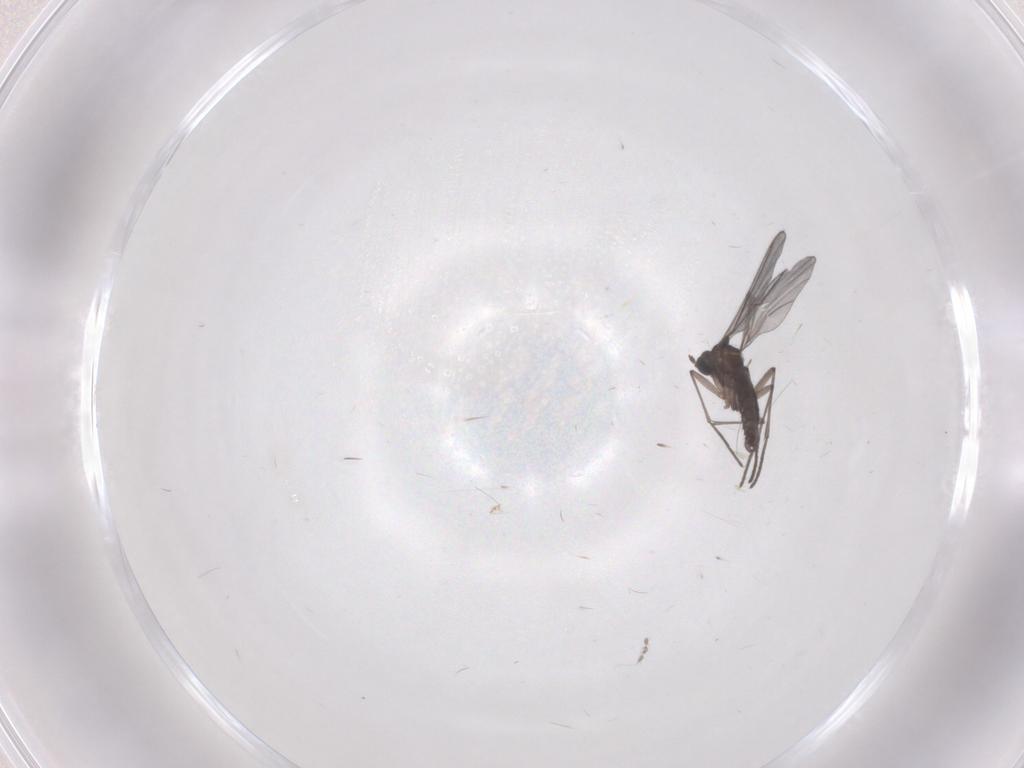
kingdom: Animalia
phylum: Arthropoda
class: Insecta
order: Diptera
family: Cecidomyiidae
